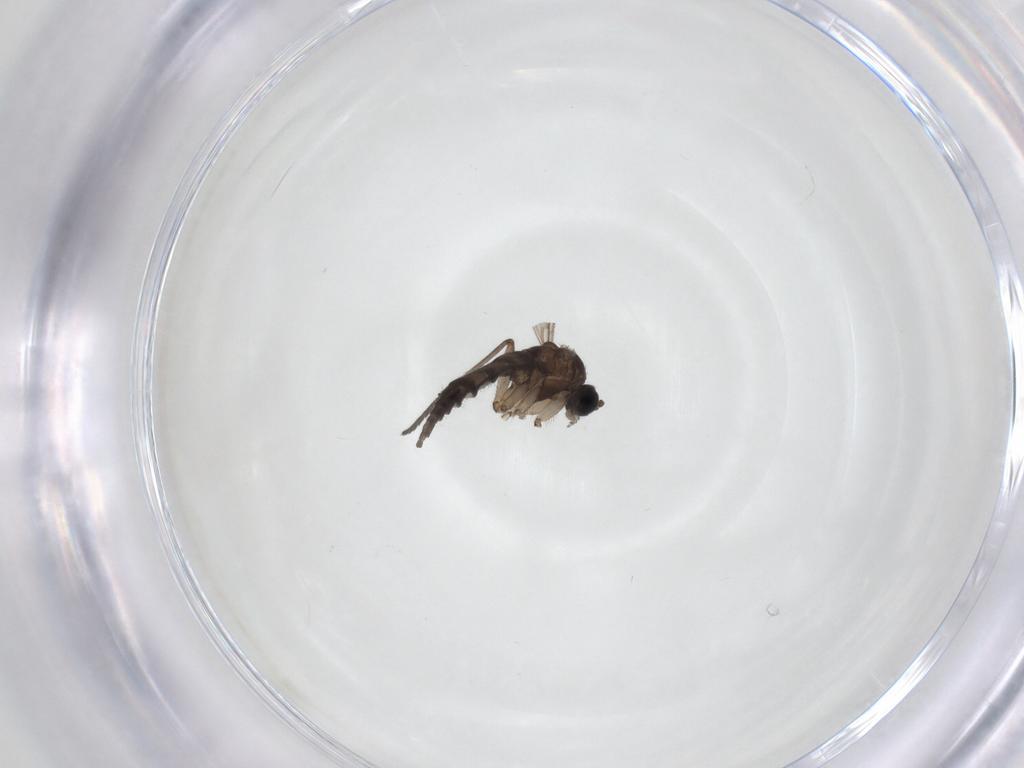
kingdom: Animalia
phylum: Arthropoda
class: Insecta
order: Diptera
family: Sciaridae
